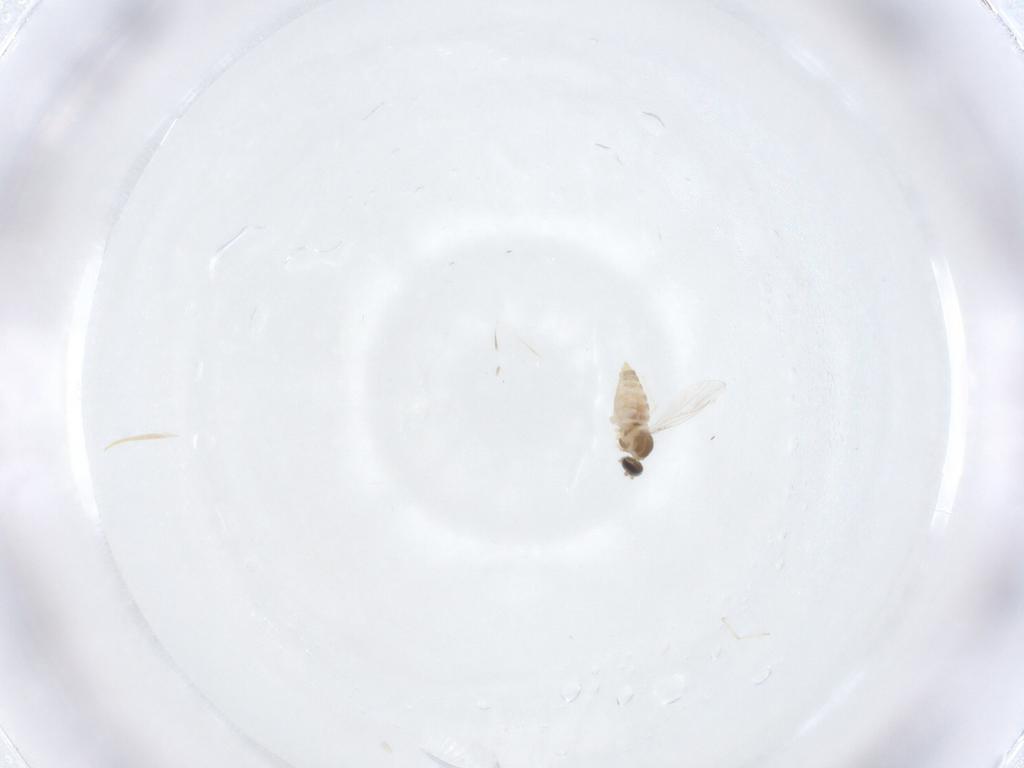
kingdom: Animalia
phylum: Arthropoda
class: Insecta
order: Diptera
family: Cecidomyiidae
